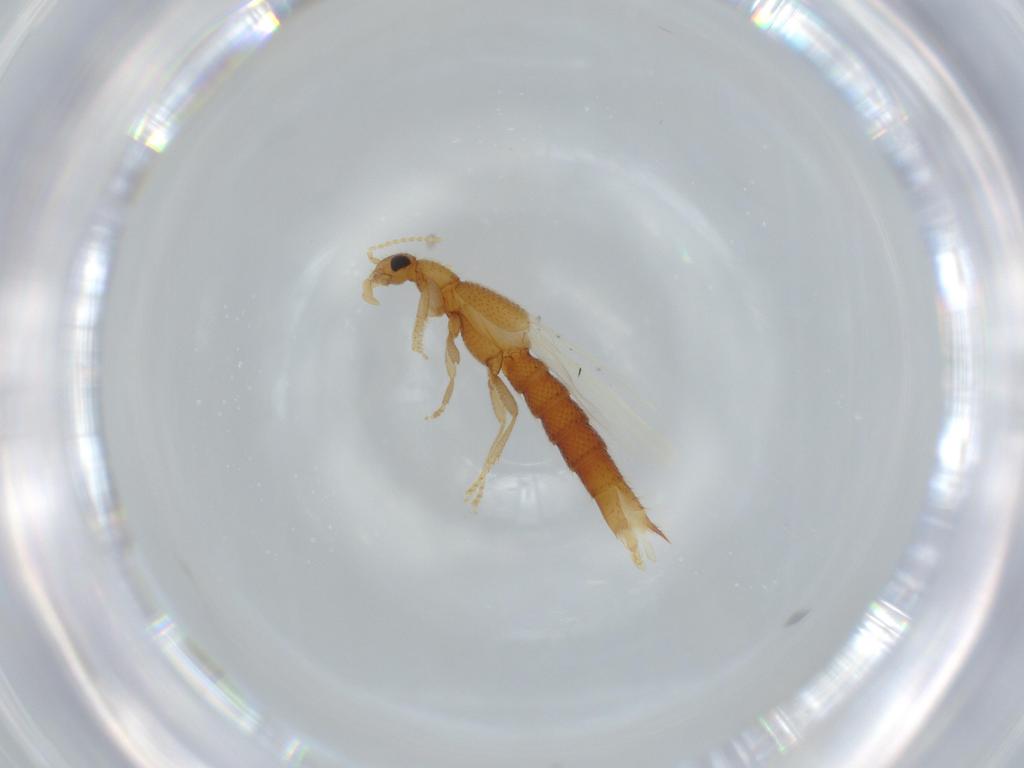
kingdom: Animalia
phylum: Arthropoda
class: Insecta
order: Coleoptera
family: Staphylinidae
